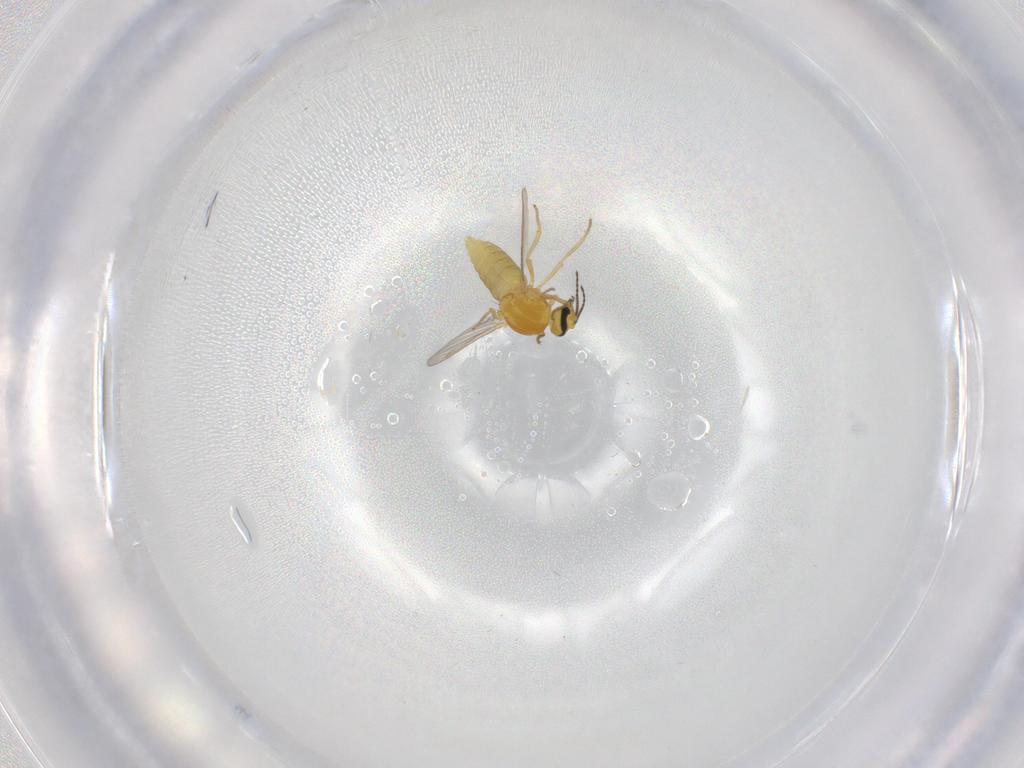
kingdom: Animalia
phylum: Arthropoda
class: Insecta
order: Diptera
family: Ceratopogonidae
